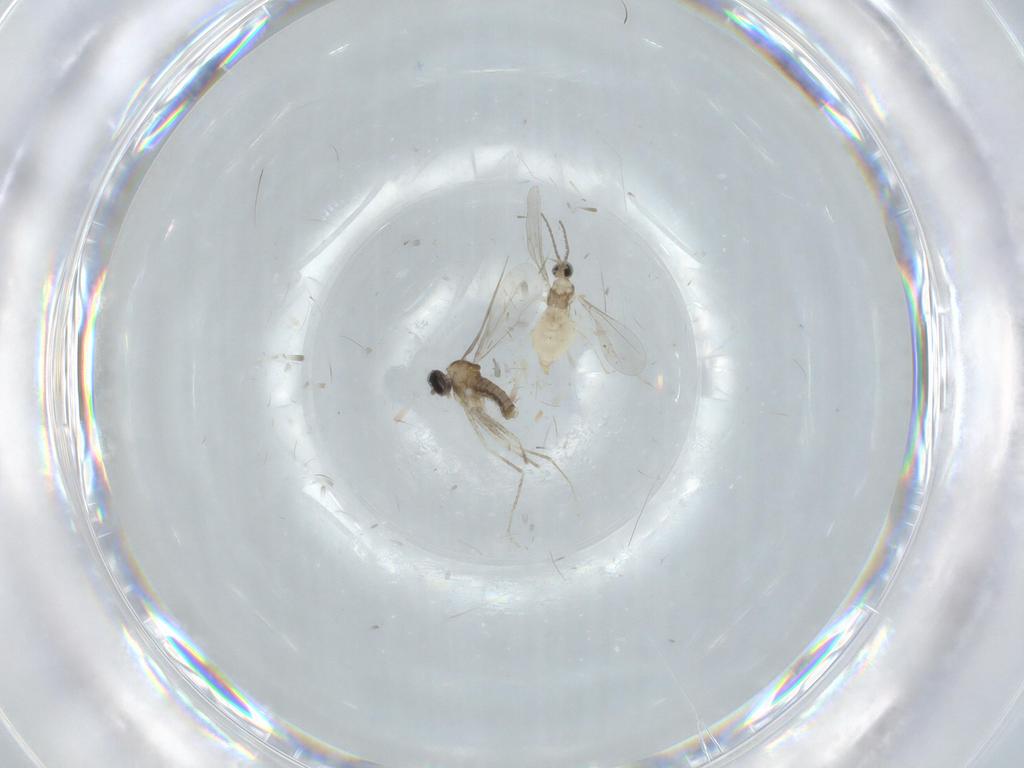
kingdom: Animalia
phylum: Arthropoda
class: Insecta
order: Diptera
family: Cecidomyiidae
